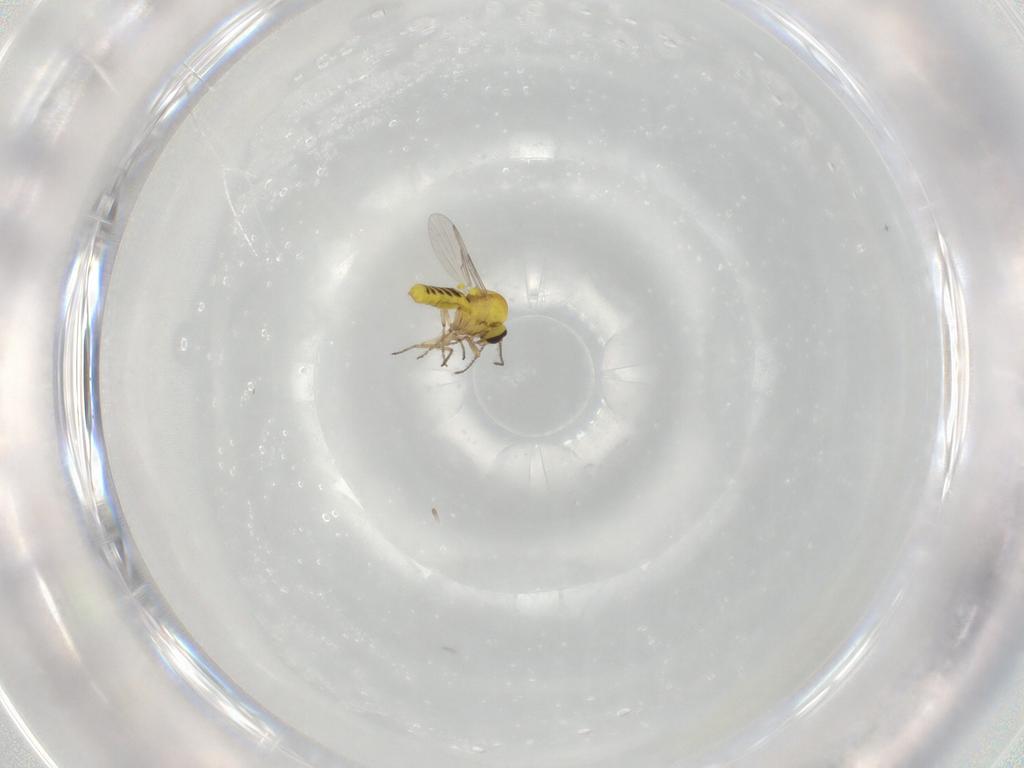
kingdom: Animalia
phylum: Arthropoda
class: Insecta
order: Diptera
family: Ceratopogonidae
